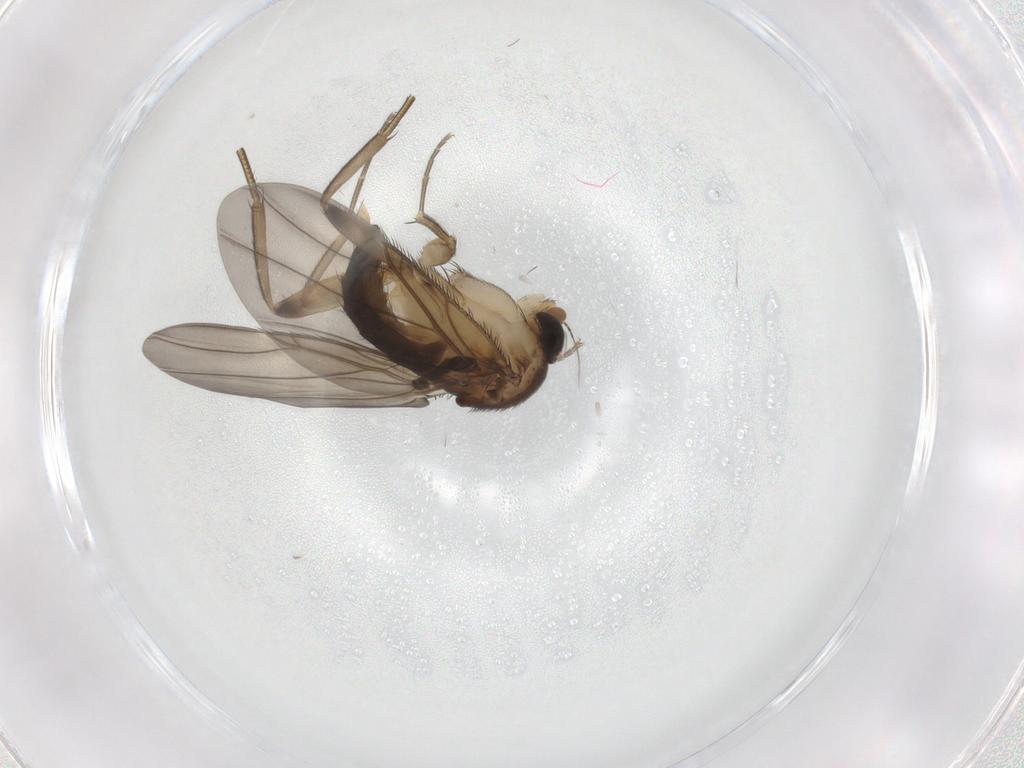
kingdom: Animalia
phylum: Arthropoda
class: Insecta
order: Diptera
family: Phoridae
